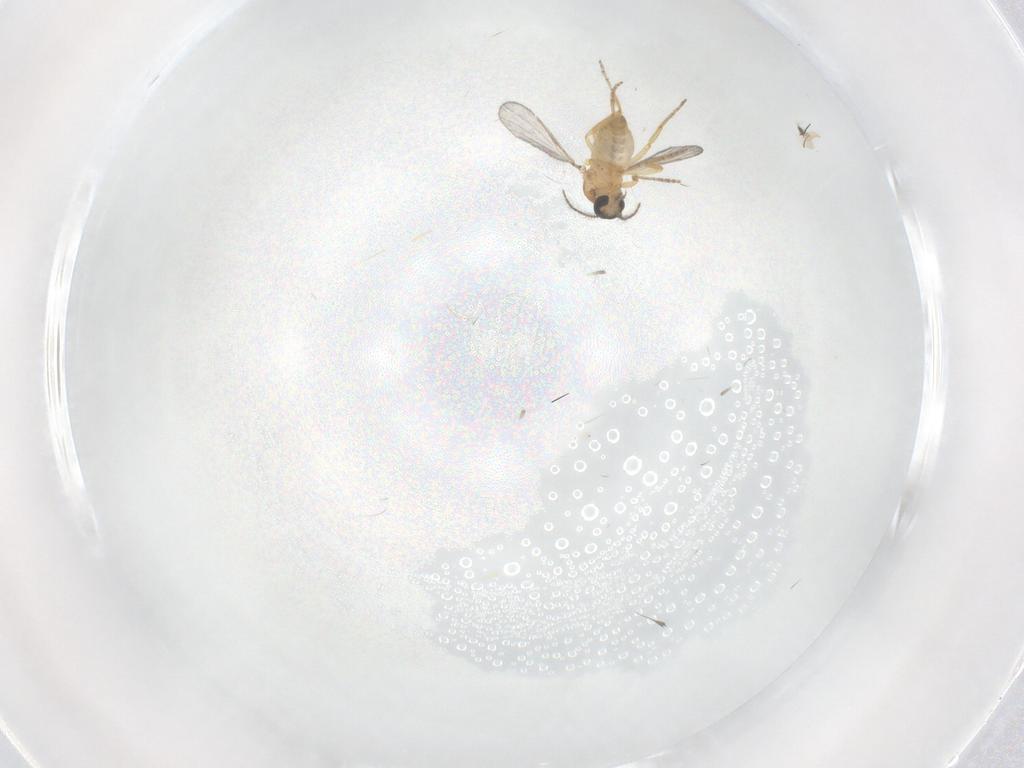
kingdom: Animalia
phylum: Arthropoda
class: Insecta
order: Diptera
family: Ceratopogonidae
